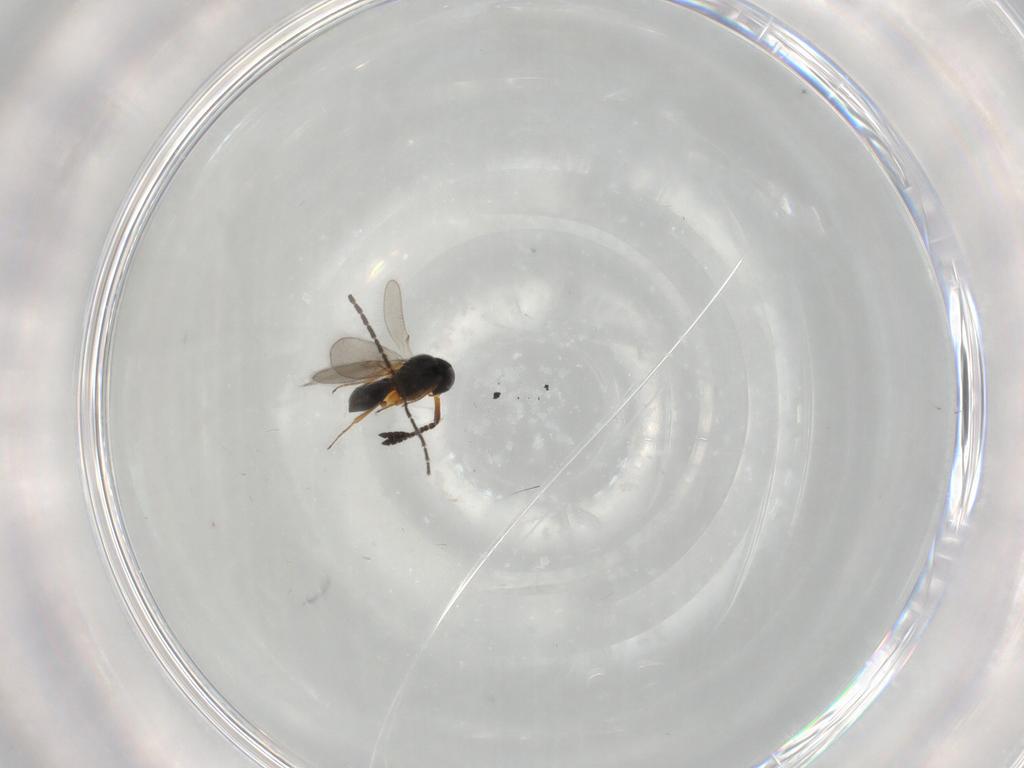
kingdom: Animalia
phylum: Arthropoda
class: Insecta
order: Hymenoptera
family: Scelionidae
